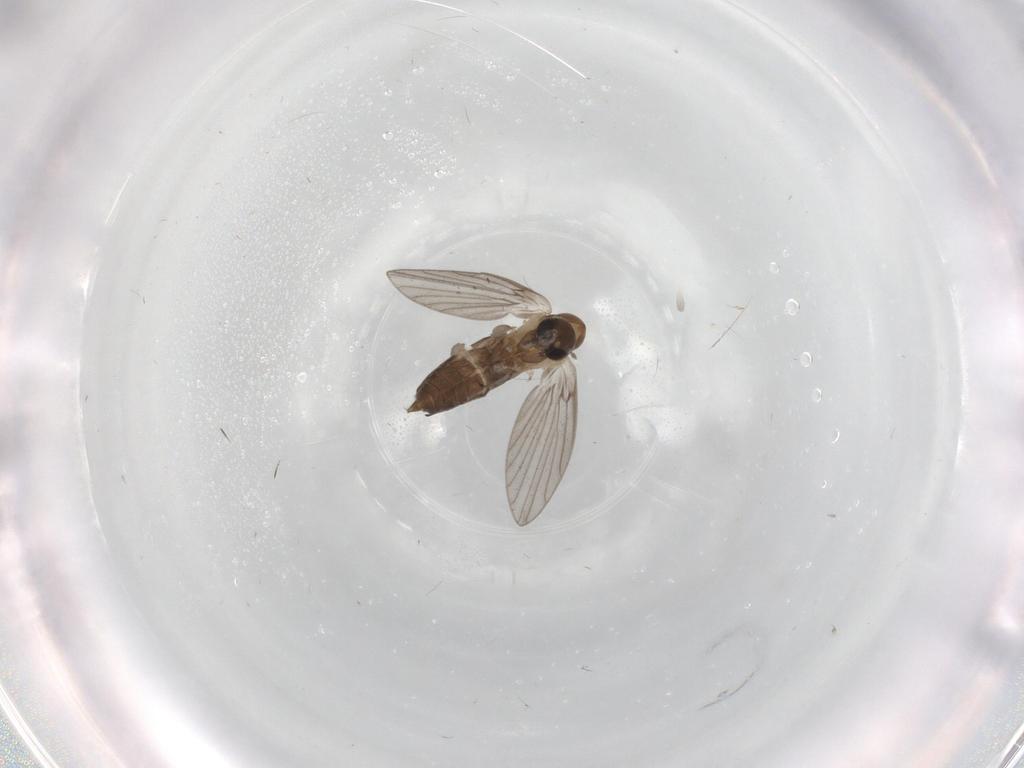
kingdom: Animalia
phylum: Arthropoda
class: Insecta
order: Diptera
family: Psychodidae
